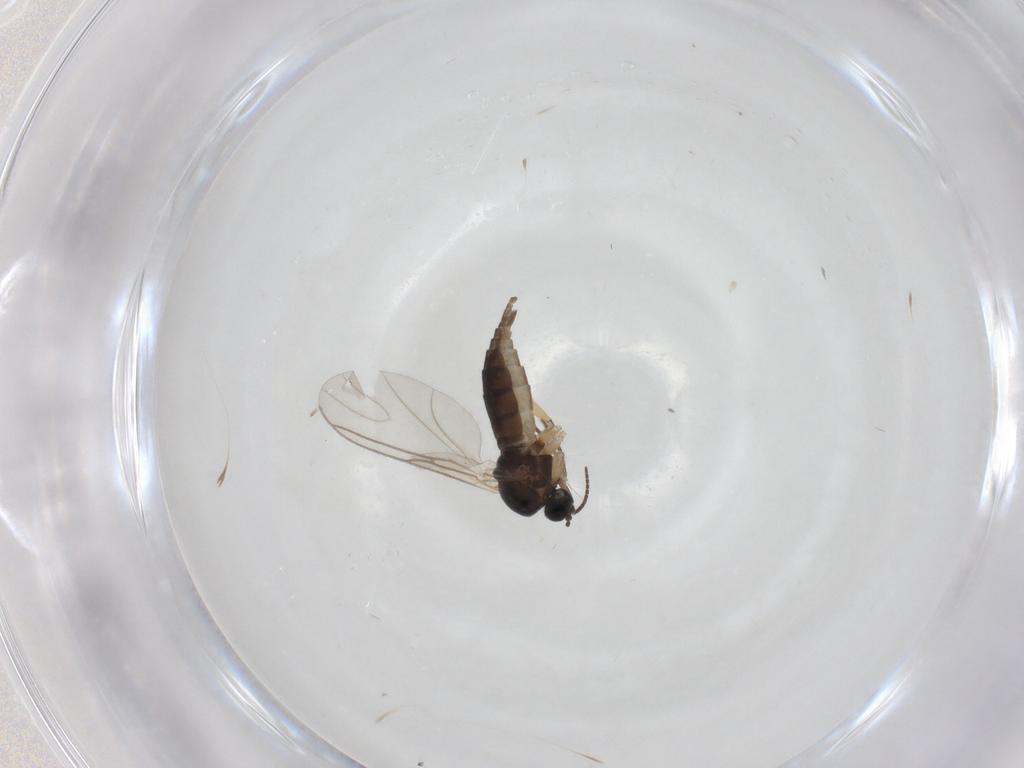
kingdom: Animalia
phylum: Arthropoda
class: Insecta
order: Diptera
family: Cecidomyiidae
